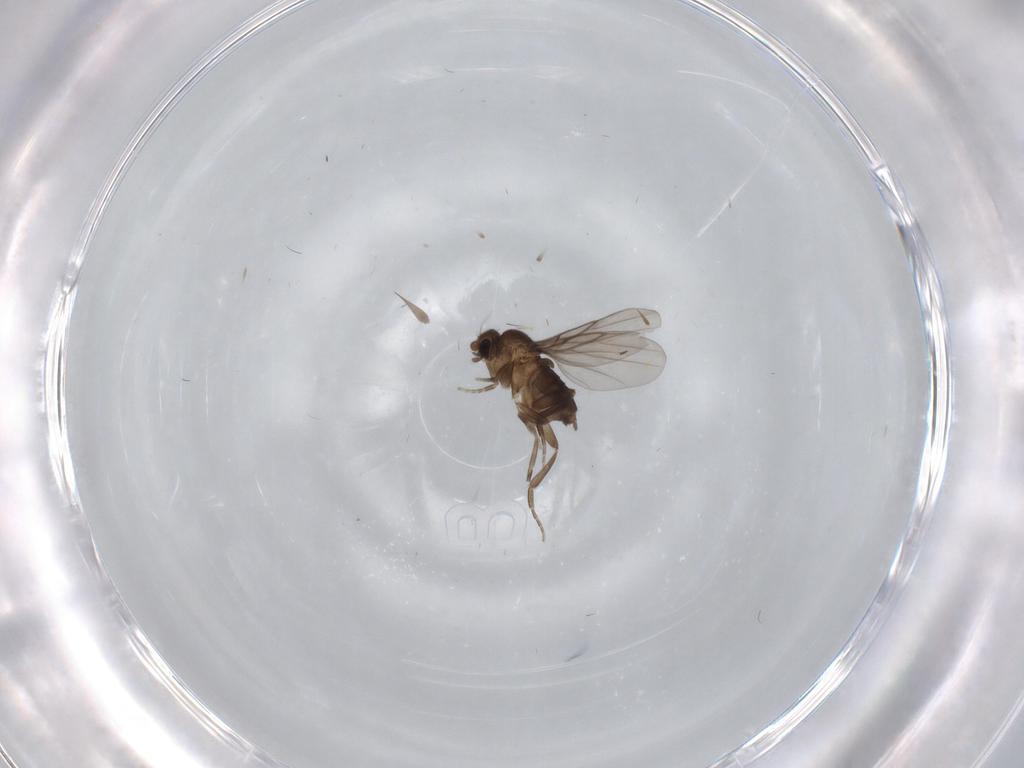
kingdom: Animalia
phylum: Arthropoda
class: Insecta
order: Diptera
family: Phoridae
